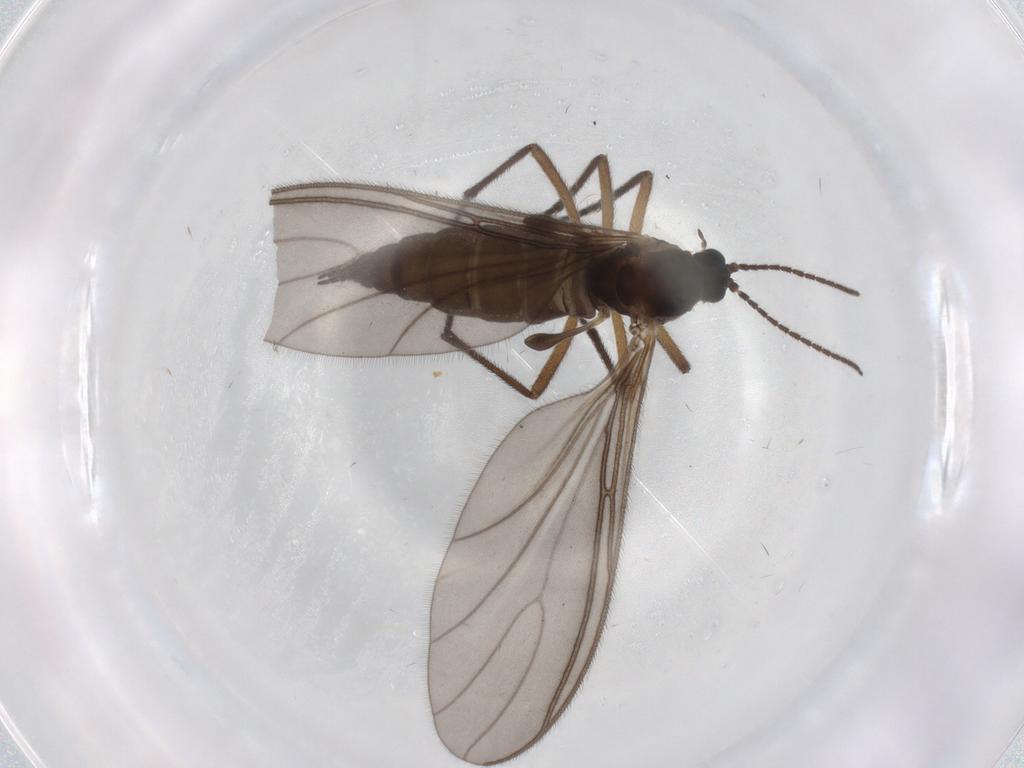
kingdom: Animalia
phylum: Arthropoda
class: Insecta
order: Diptera
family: Sciaridae
